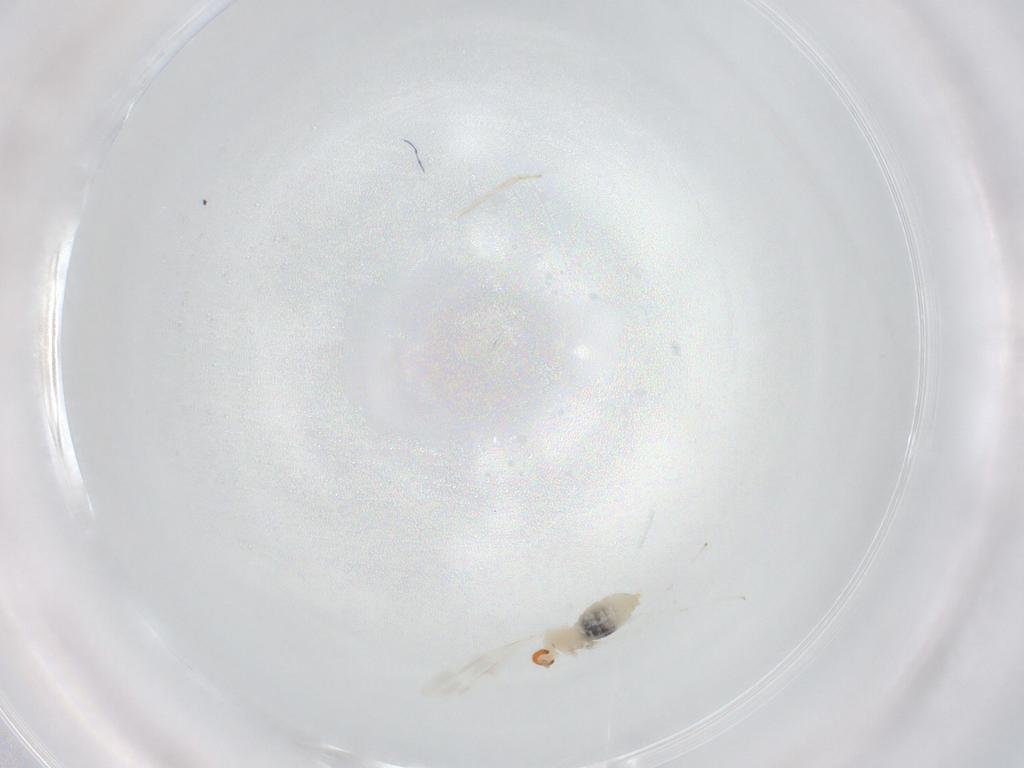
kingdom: Animalia
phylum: Arthropoda
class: Insecta
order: Diptera
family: Cecidomyiidae
